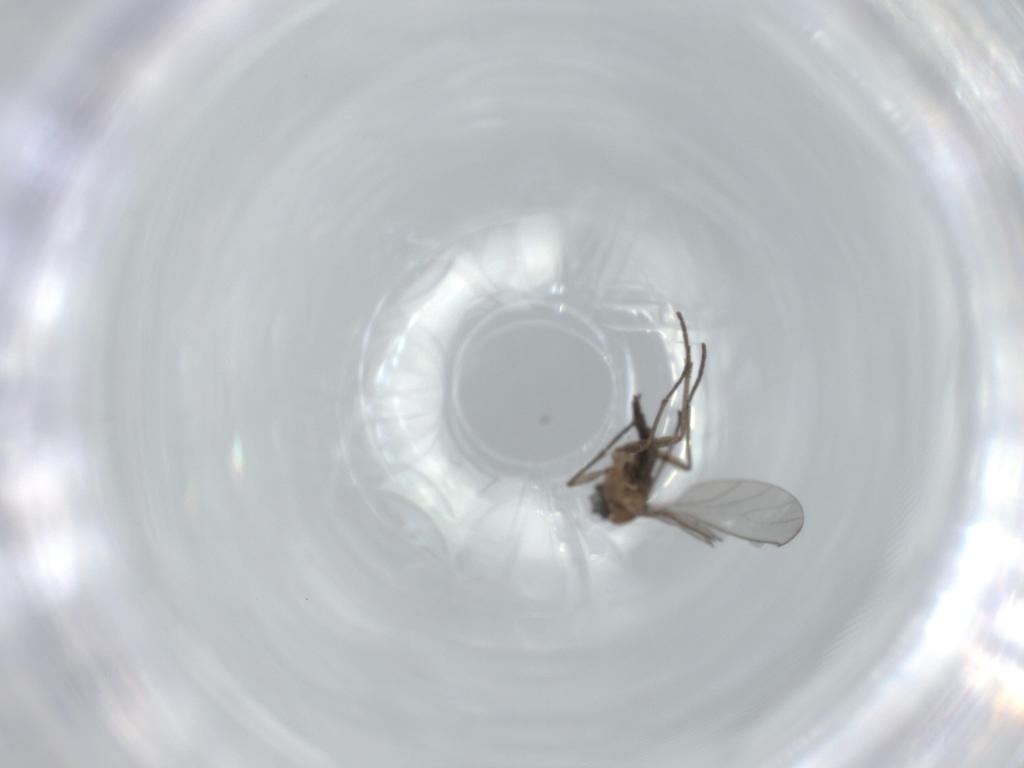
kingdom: Animalia
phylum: Arthropoda
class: Insecta
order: Diptera
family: Sciaridae
